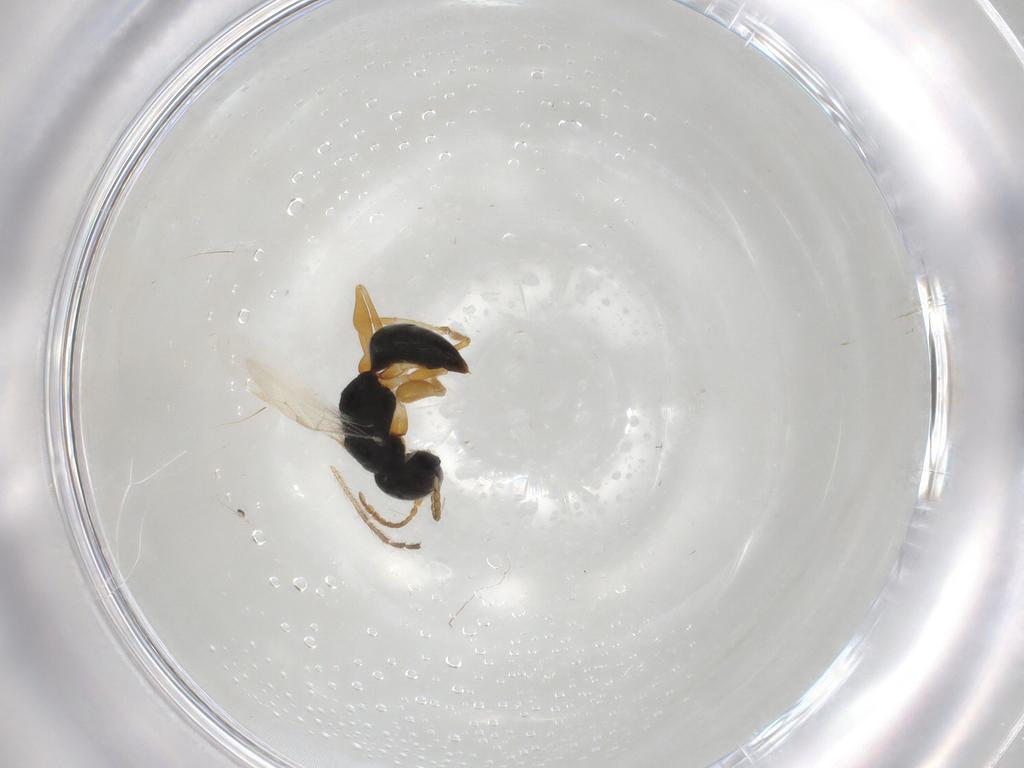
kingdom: Animalia
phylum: Arthropoda
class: Insecta
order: Hymenoptera
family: Dryinidae
